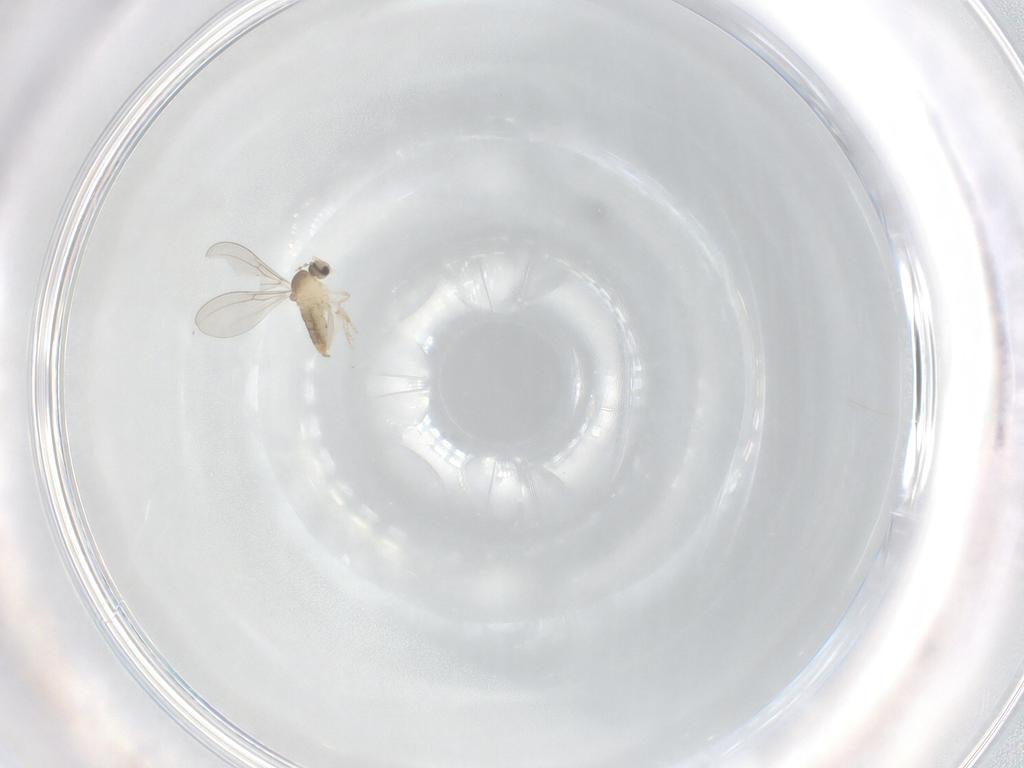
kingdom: Animalia
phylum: Arthropoda
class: Insecta
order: Diptera
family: Cecidomyiidae
